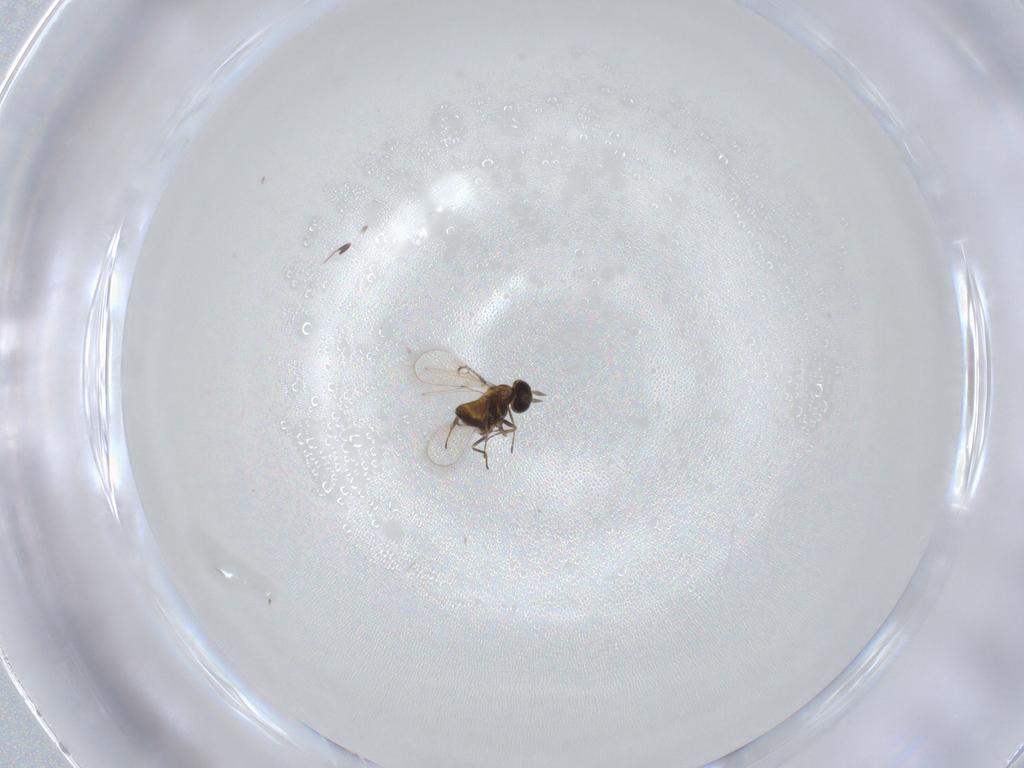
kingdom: Animalia
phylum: Arthropoda
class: Insecta
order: Hymenoptera
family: Trichogrammatidae
